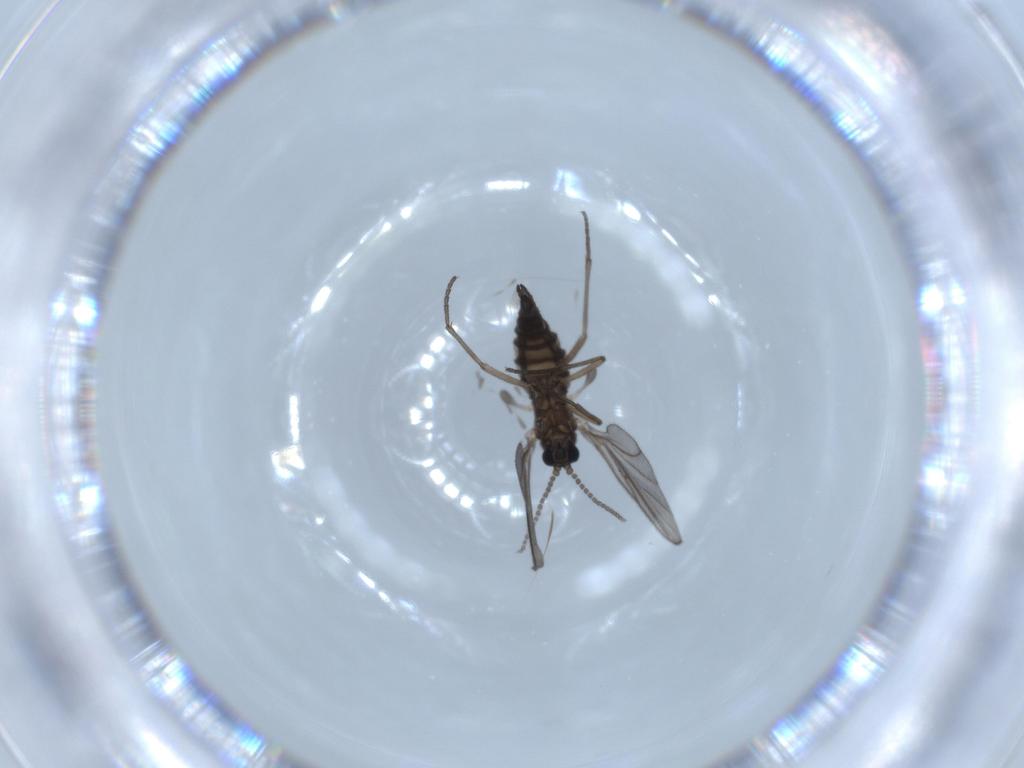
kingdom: Animalia
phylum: Arthropoda
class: Insecta
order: Diptera
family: Sciaridae
